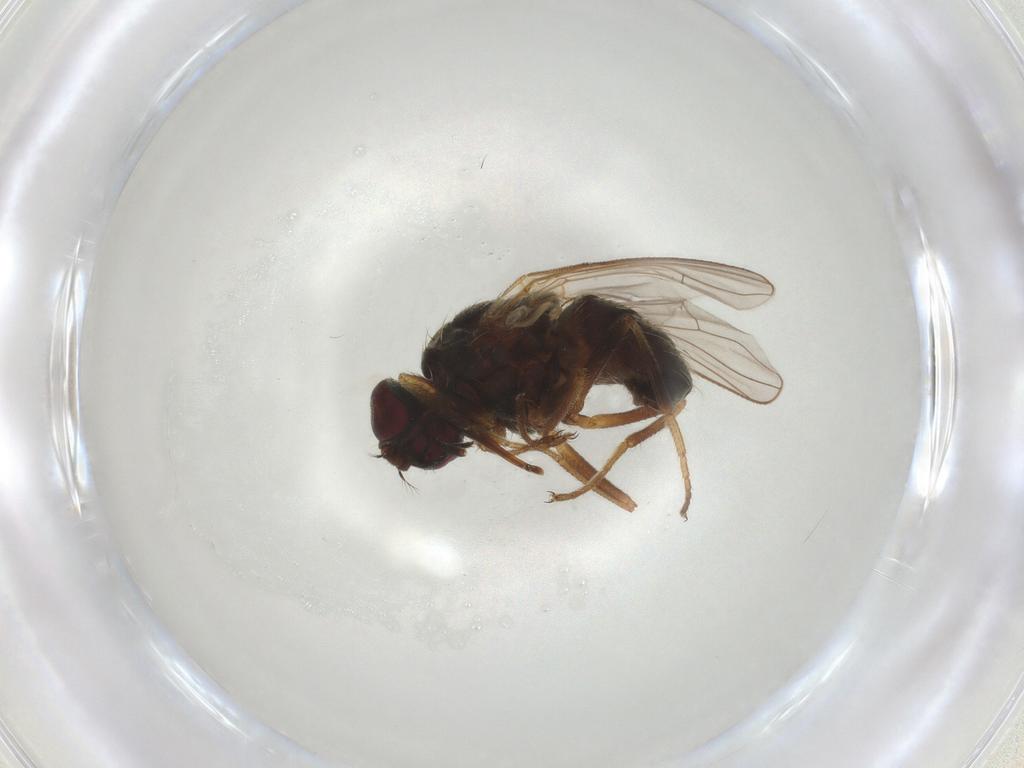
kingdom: Animalia
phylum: Arthropoda
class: Insecta
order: Diptera
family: Muscidae
